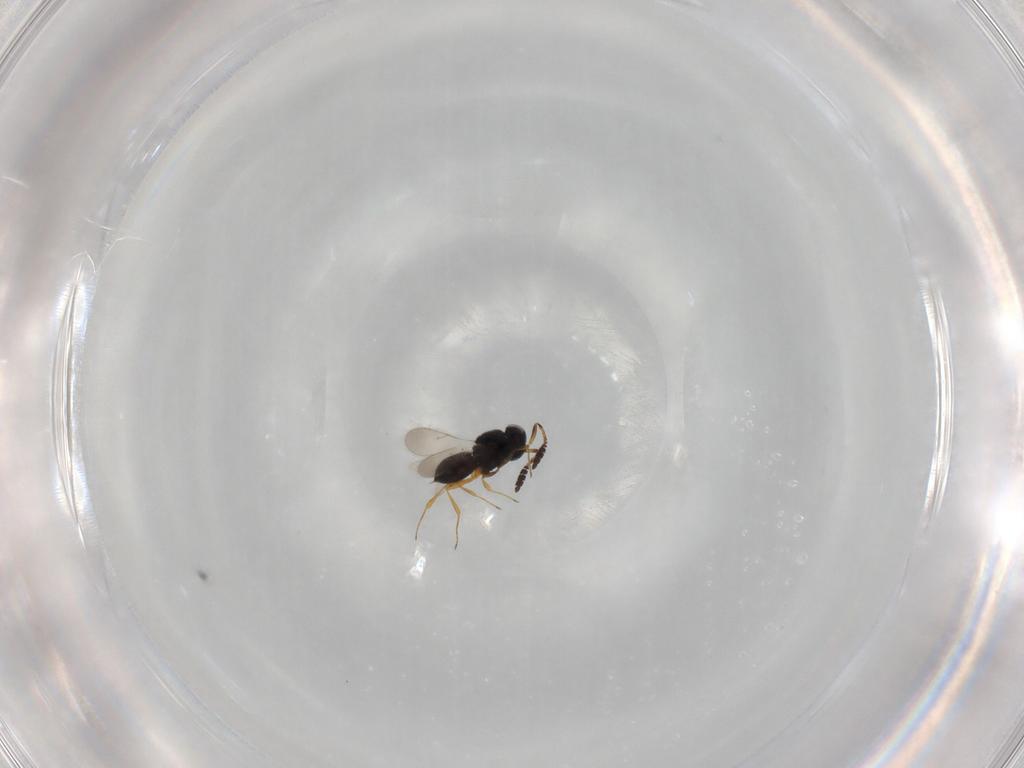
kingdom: Animalia
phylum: Arthropoda
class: Insecta
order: Hymenoptera
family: Scelionidae
